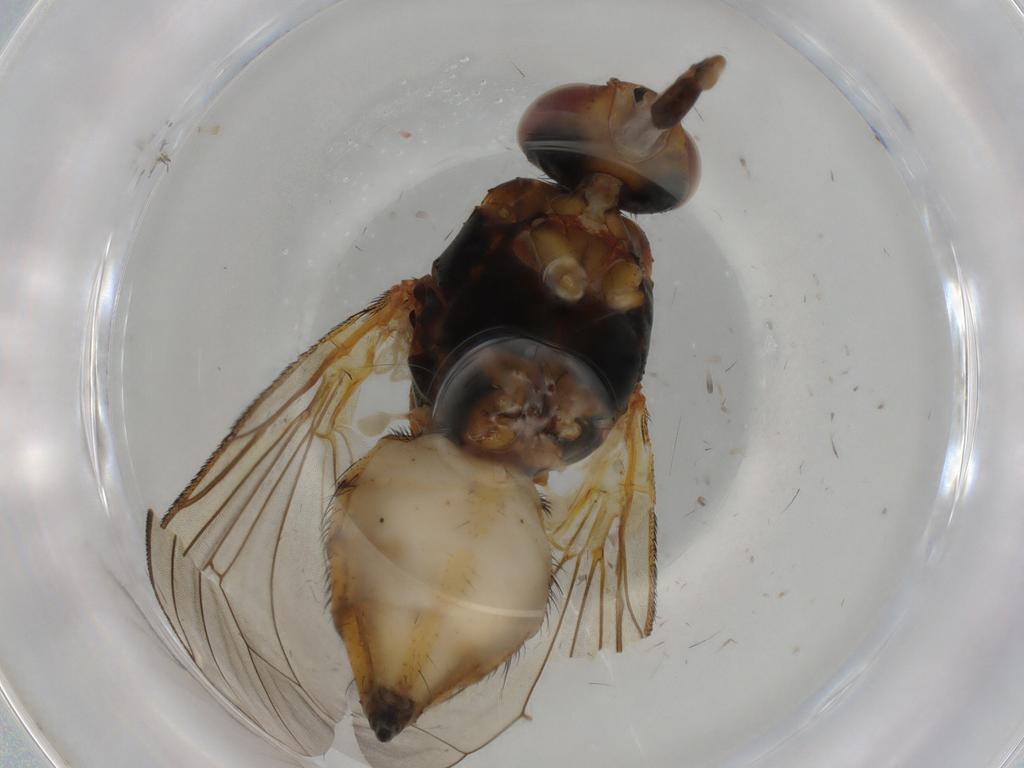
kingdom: Animalia
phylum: Arthropoda
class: Insecta
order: Diptera
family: Anthomyiidae
